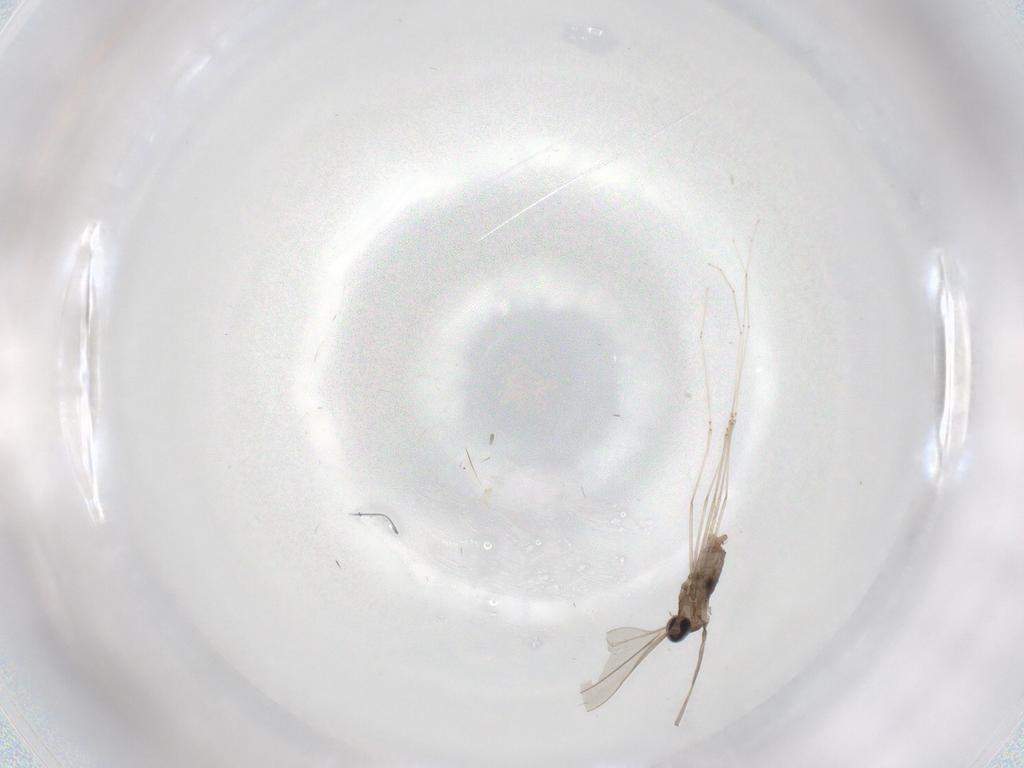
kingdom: Animalia
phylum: Arthropoda
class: Insecta
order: Diptera
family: Cecidomyiidae
